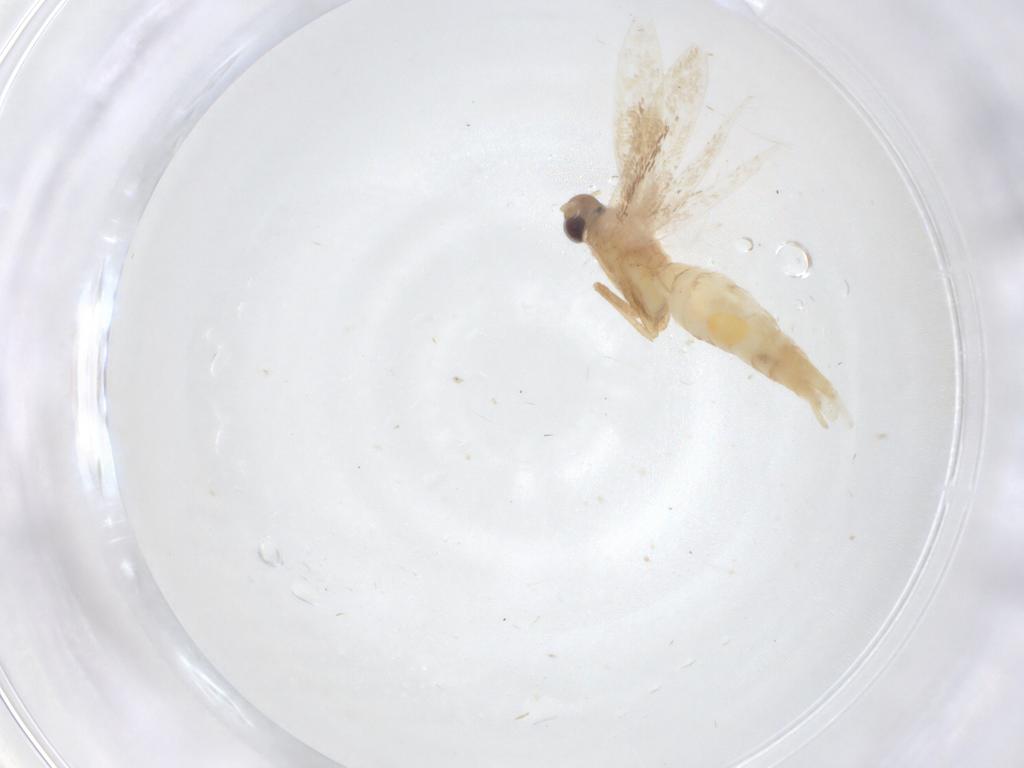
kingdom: Animalia
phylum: Arthropoda
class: Insecta
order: Lepidoptera
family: Gracillariidae
